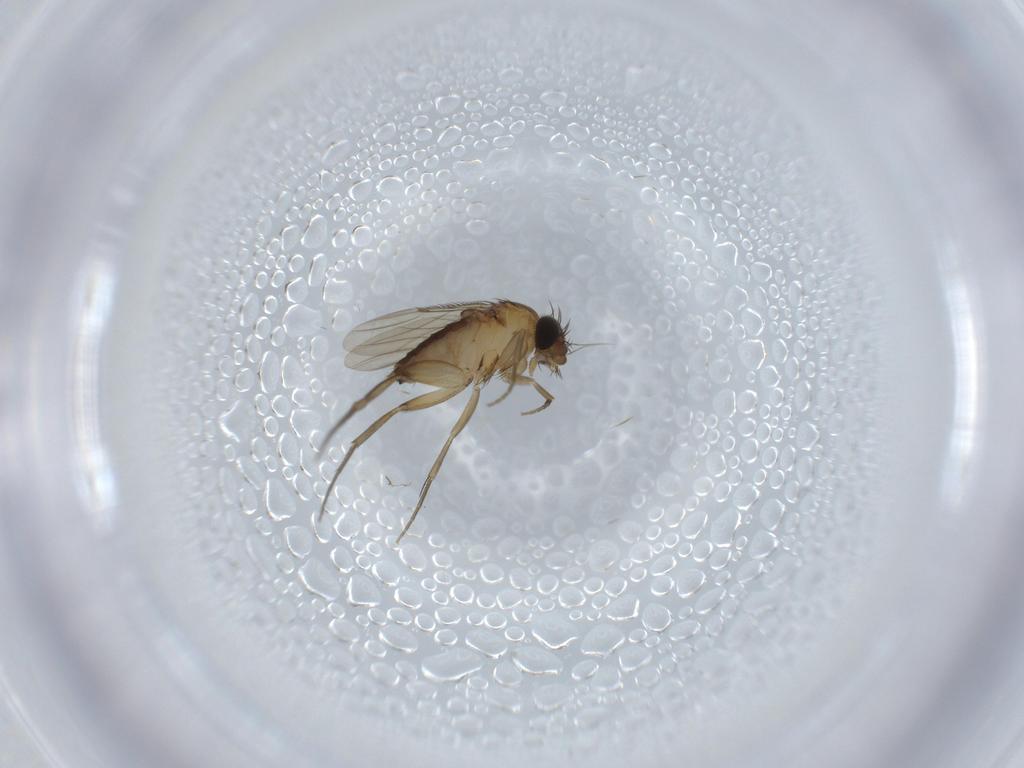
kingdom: Animalia
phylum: Arthropoda
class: Insecta
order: Diptera
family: Phoridae
